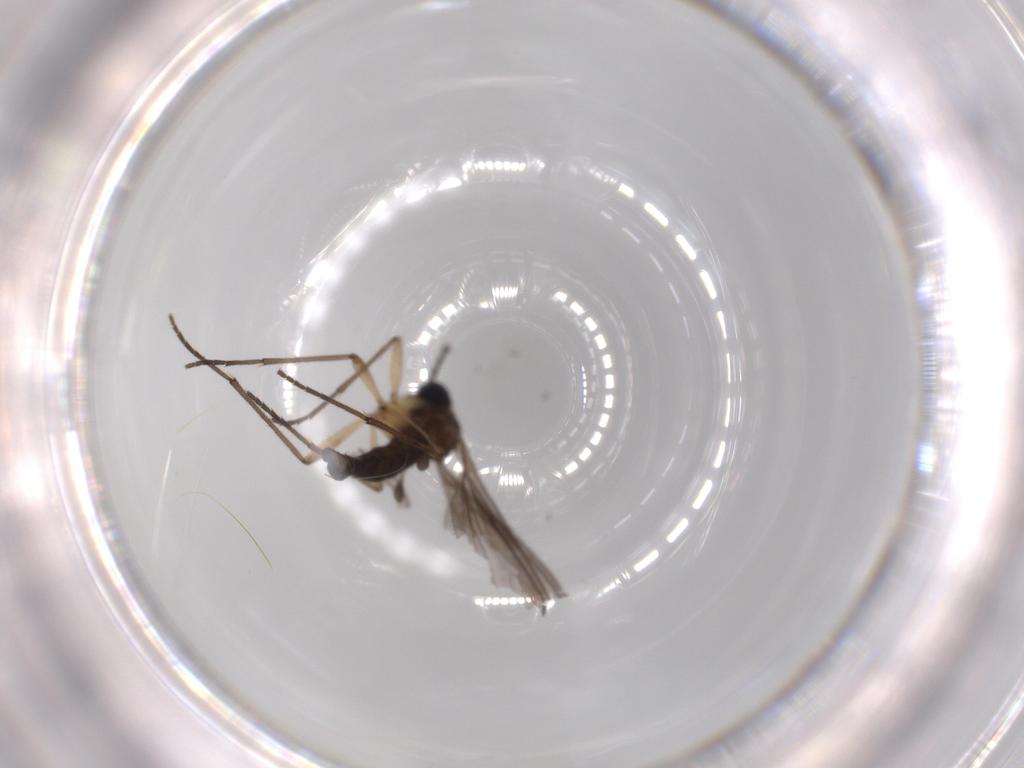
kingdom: Animalia
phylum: Arthropoda
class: Insecta
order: Diptera
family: Sciaridae
